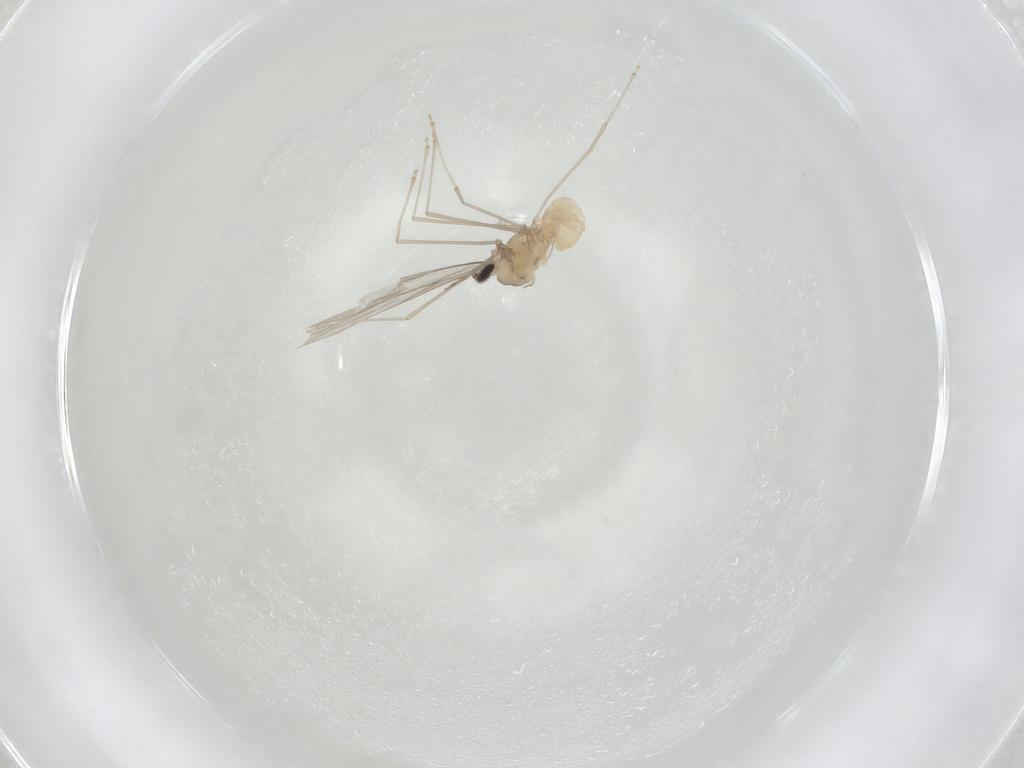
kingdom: Animalia
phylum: Arthropoda
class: Insecta
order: Diptera
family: Cecidomyiidae
